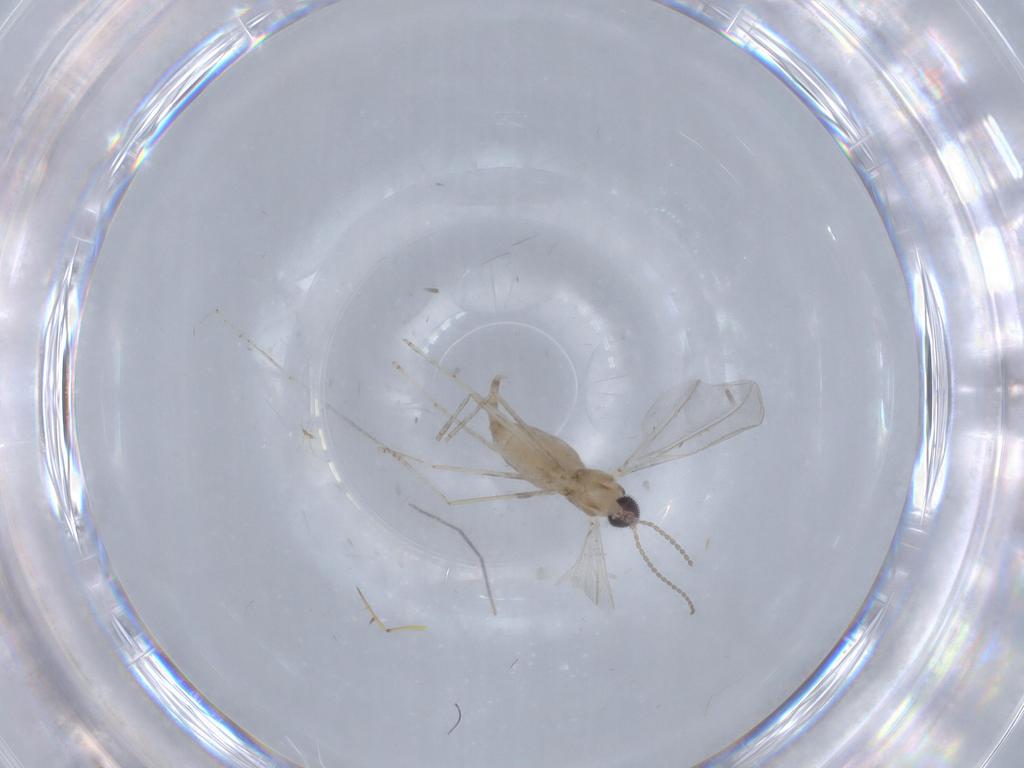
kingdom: Animalia
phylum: Arthropoda
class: Insecta
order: Diptera
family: Cecidomyiidae
